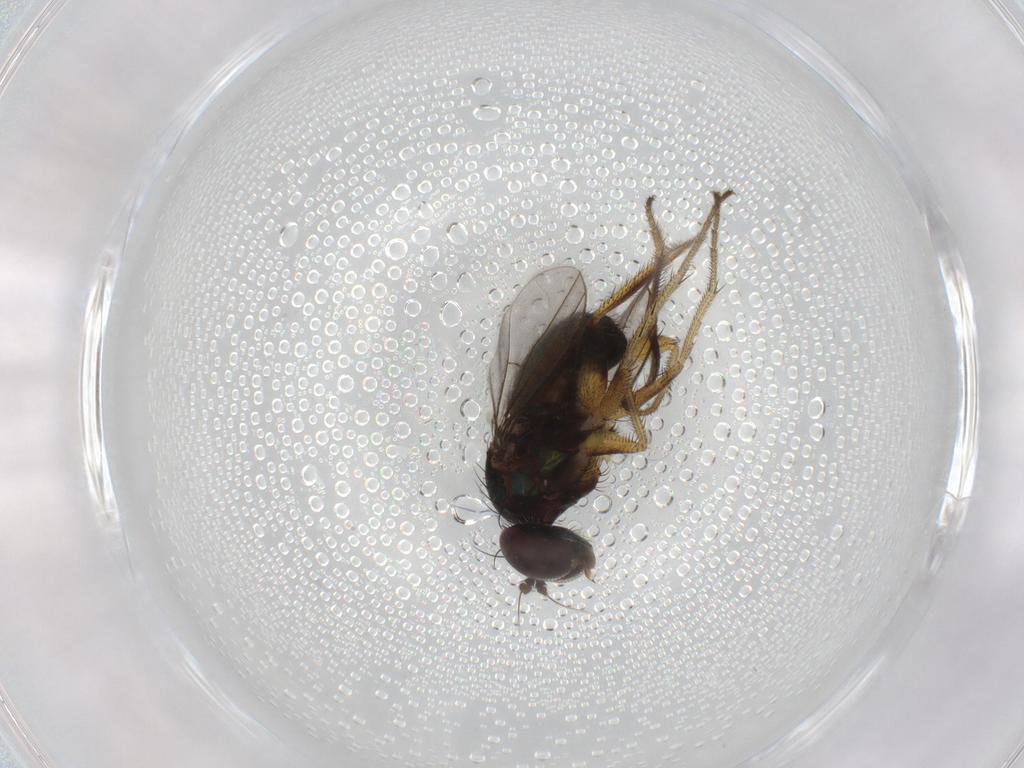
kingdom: Animalia
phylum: Arthropoda
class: Insecta
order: Diptera
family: Dolichopodidae
